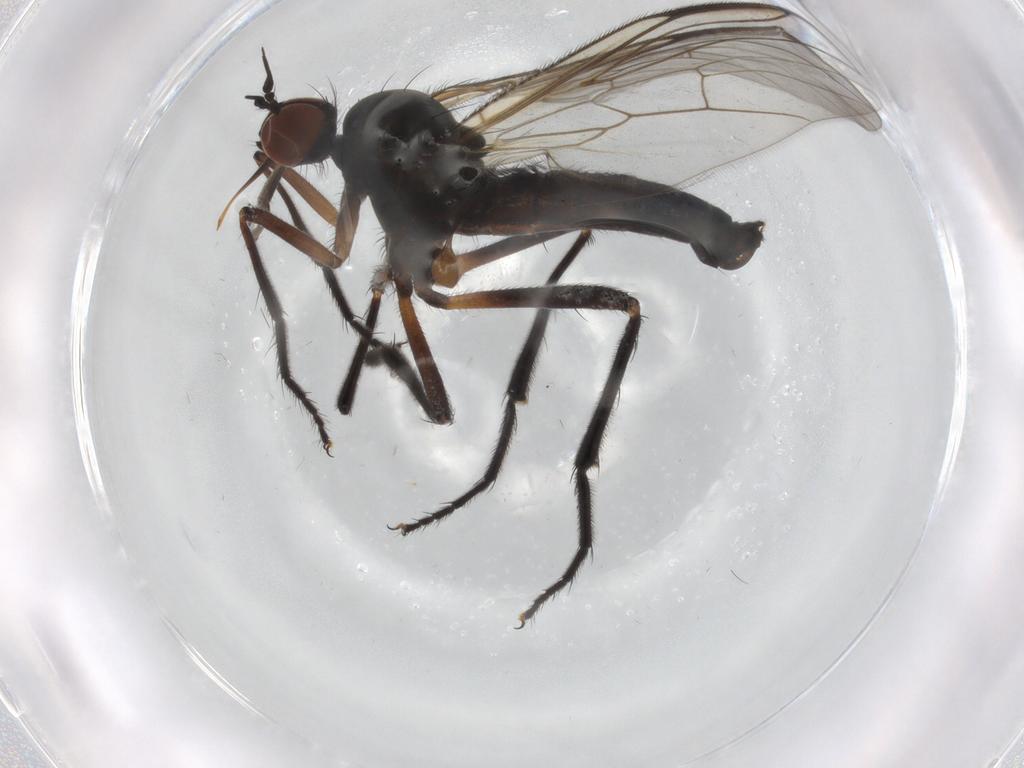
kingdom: Animalia
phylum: Arthropoda
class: Insecta
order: Diptera
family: Empididae
